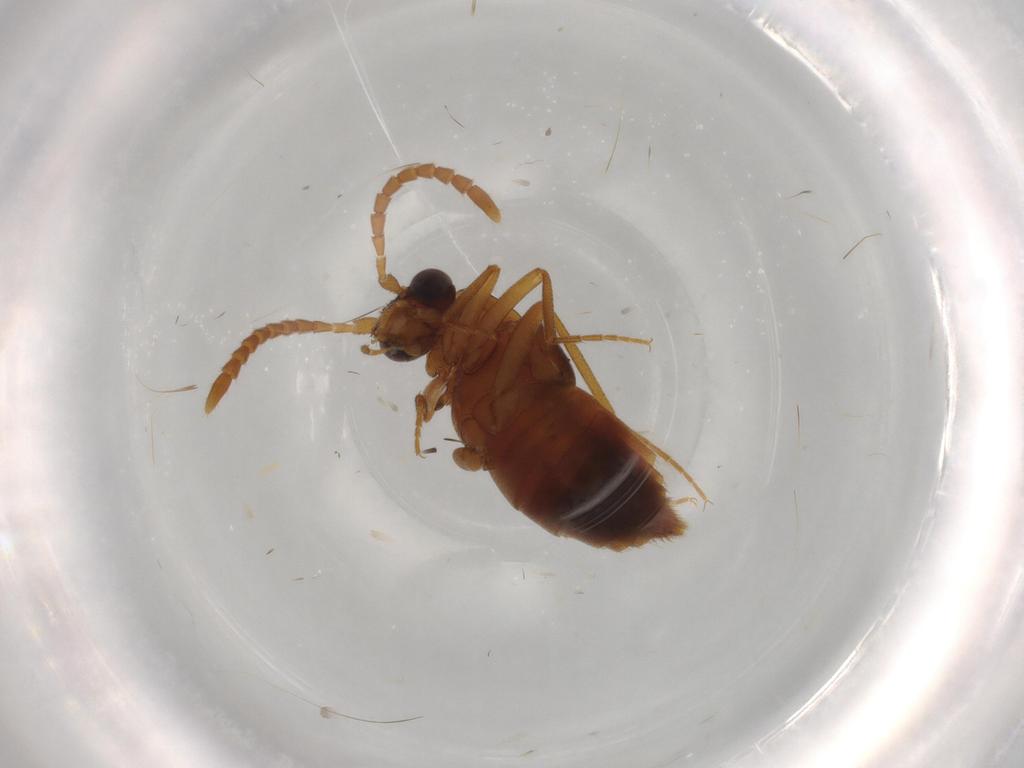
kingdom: Animalia
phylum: Arthropoda
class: Insecta
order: Coleoptera
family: Staphylinidae
